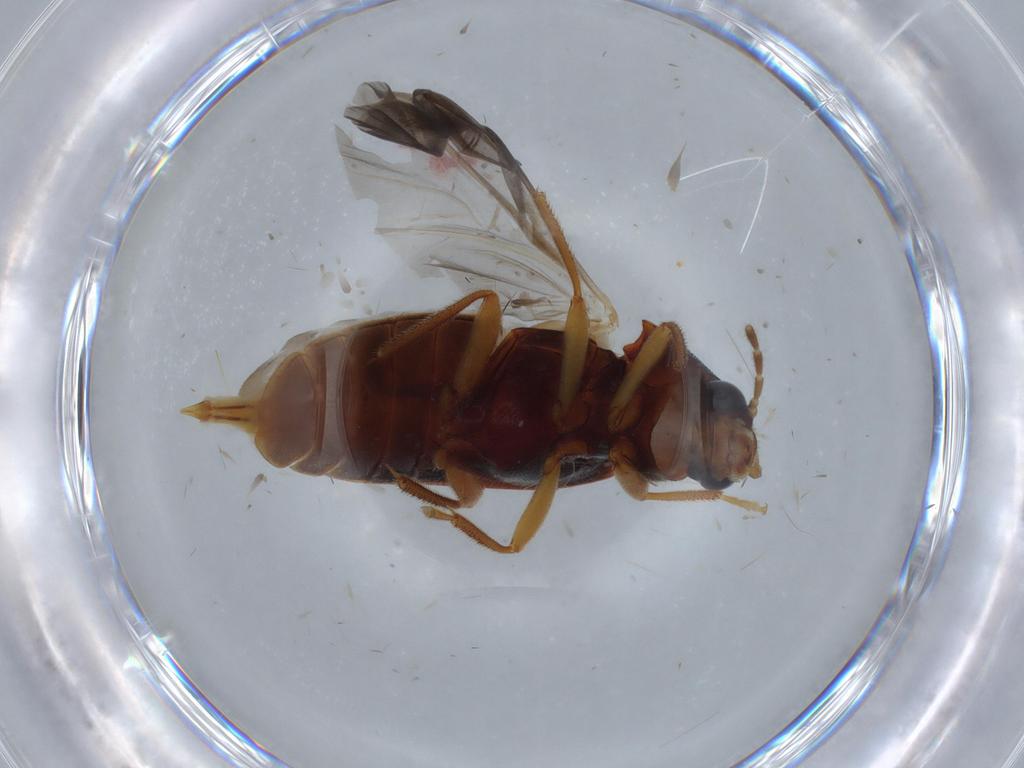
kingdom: Animalia
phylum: Arthropoda
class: Insecta
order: Coleoptera
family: Ptilodactylidae
